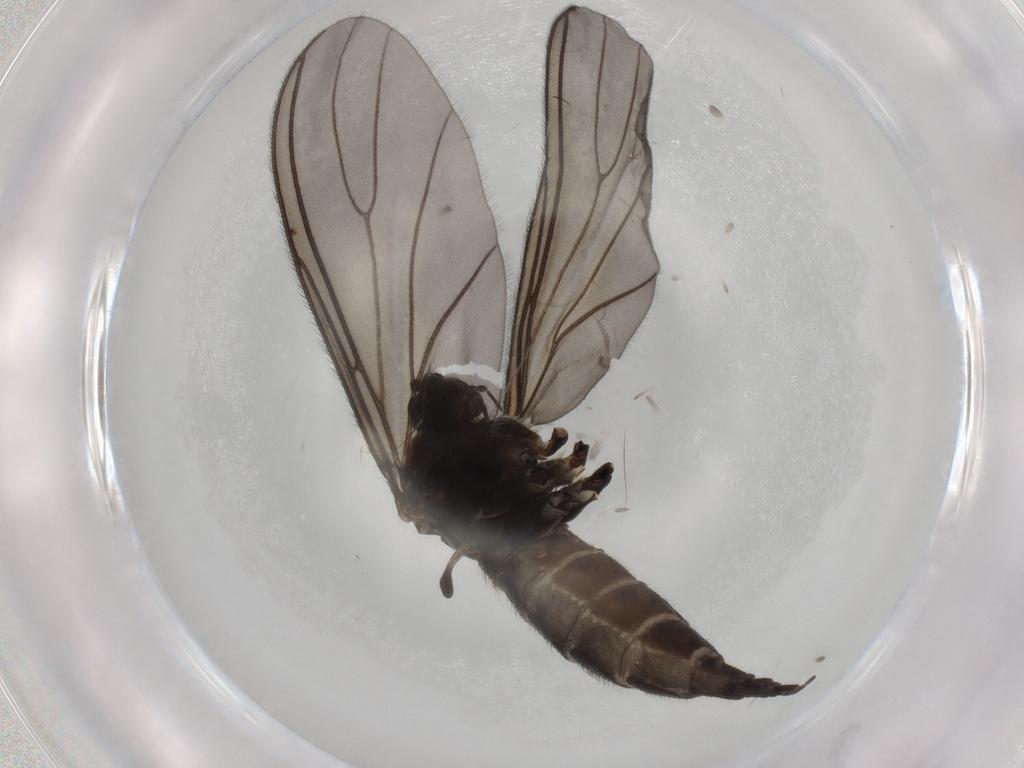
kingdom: Animalia
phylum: Arthropoda
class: Insecta
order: Diptera
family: Sciaridae
